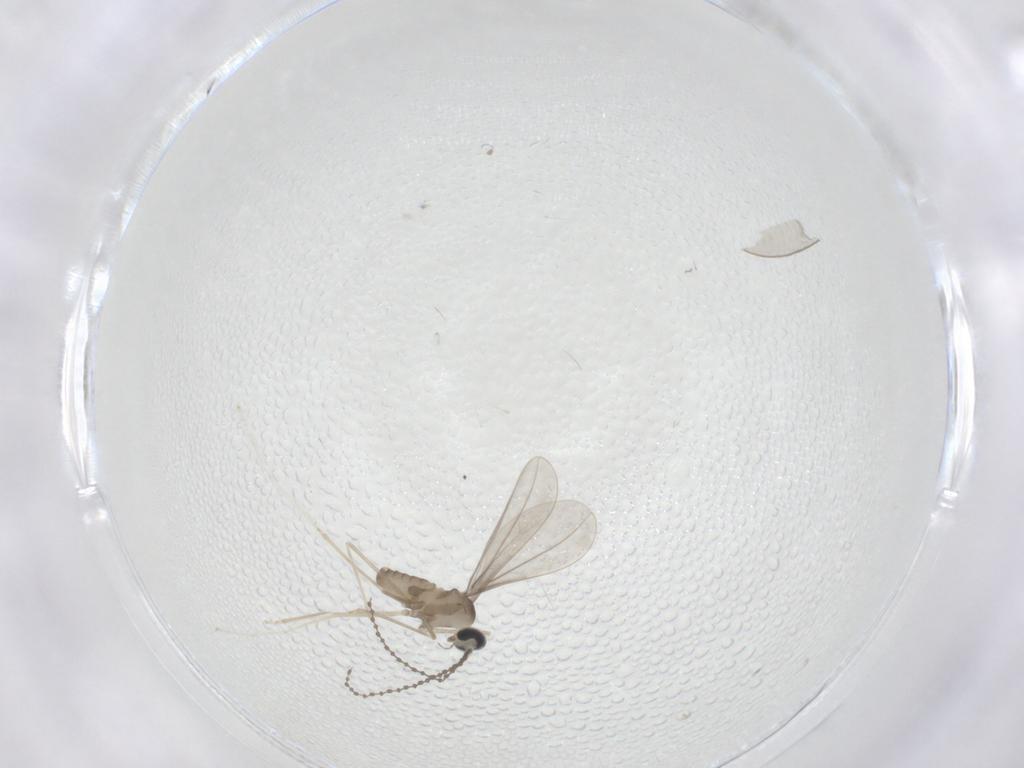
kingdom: Animalia
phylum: Arthropoda
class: Insecta
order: Diptera
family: Cecidomyiidae
